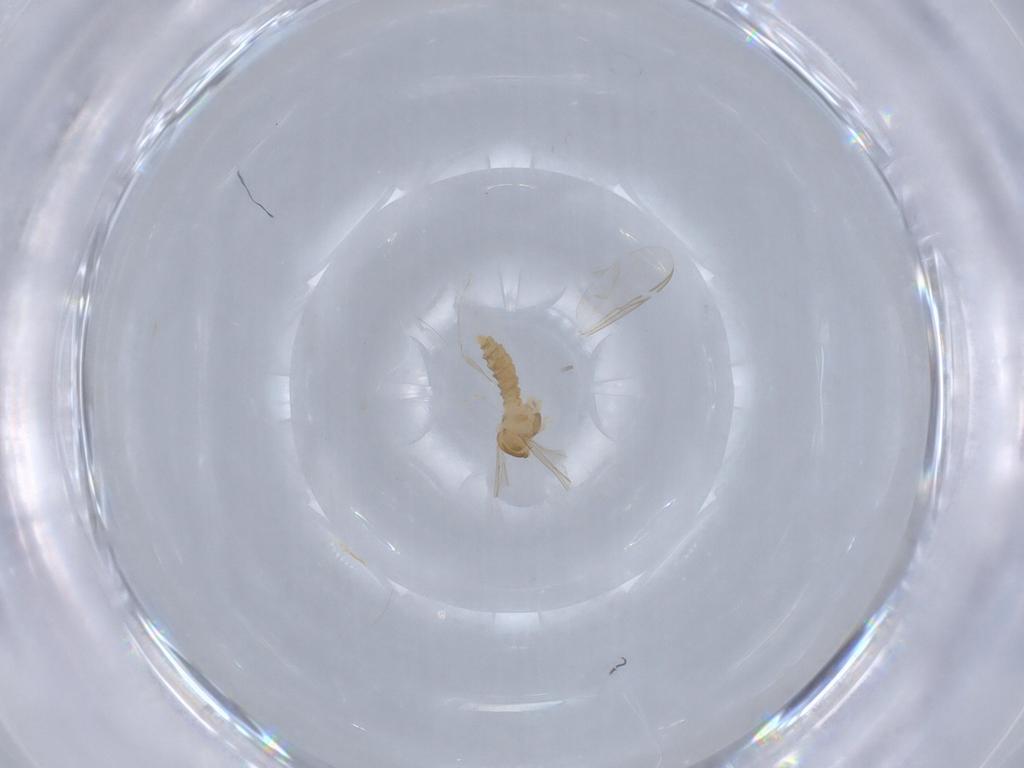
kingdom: Animalia
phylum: Arthropoda
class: Insecta
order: Diptera
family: Cecidomyiidae
